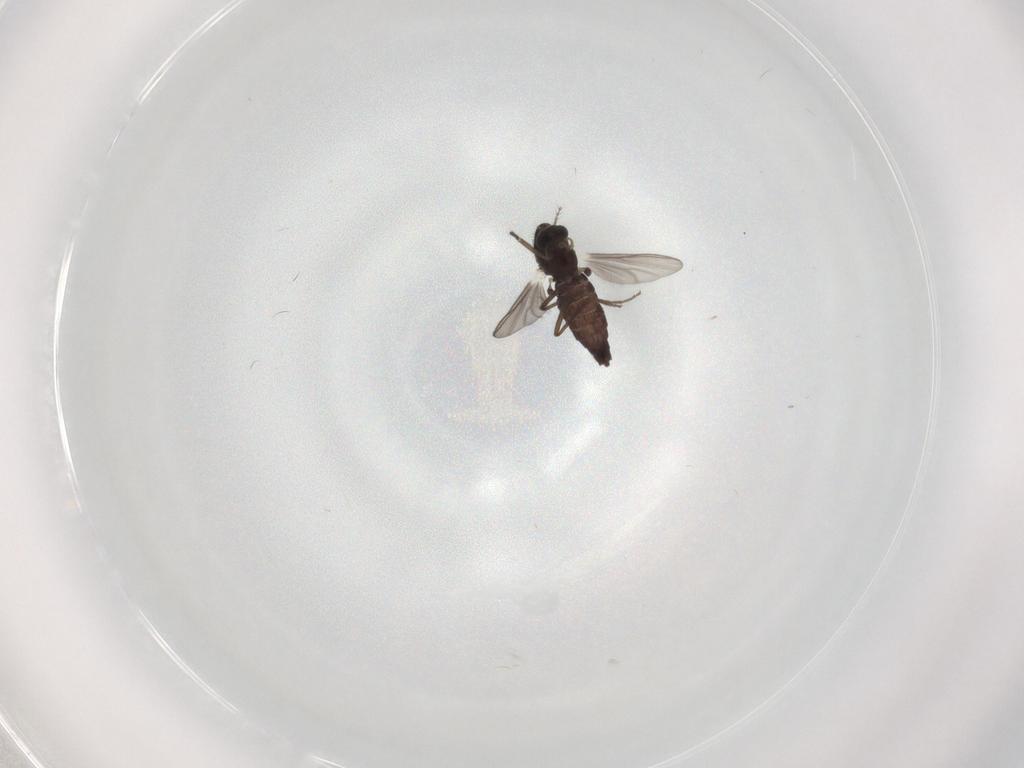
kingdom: Animalia
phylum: Arthropoda
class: Insecta
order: Diptera
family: Chironomidae
